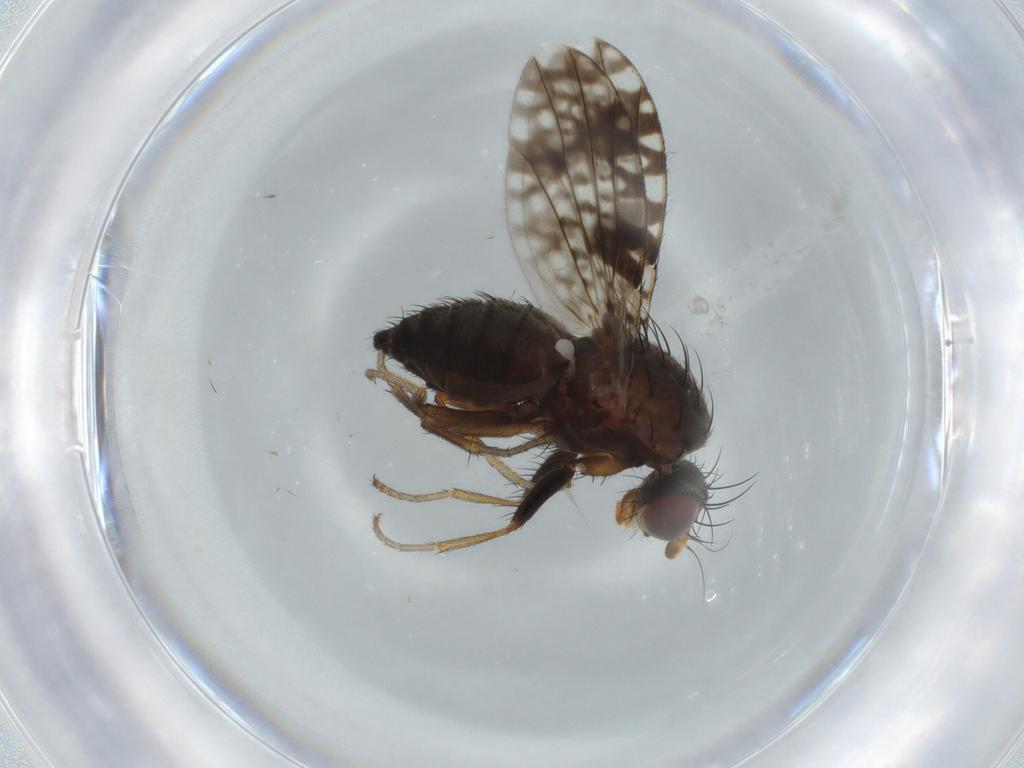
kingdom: Animalia
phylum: Arthropoda
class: Insecta
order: Diptera
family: Tephritidae
